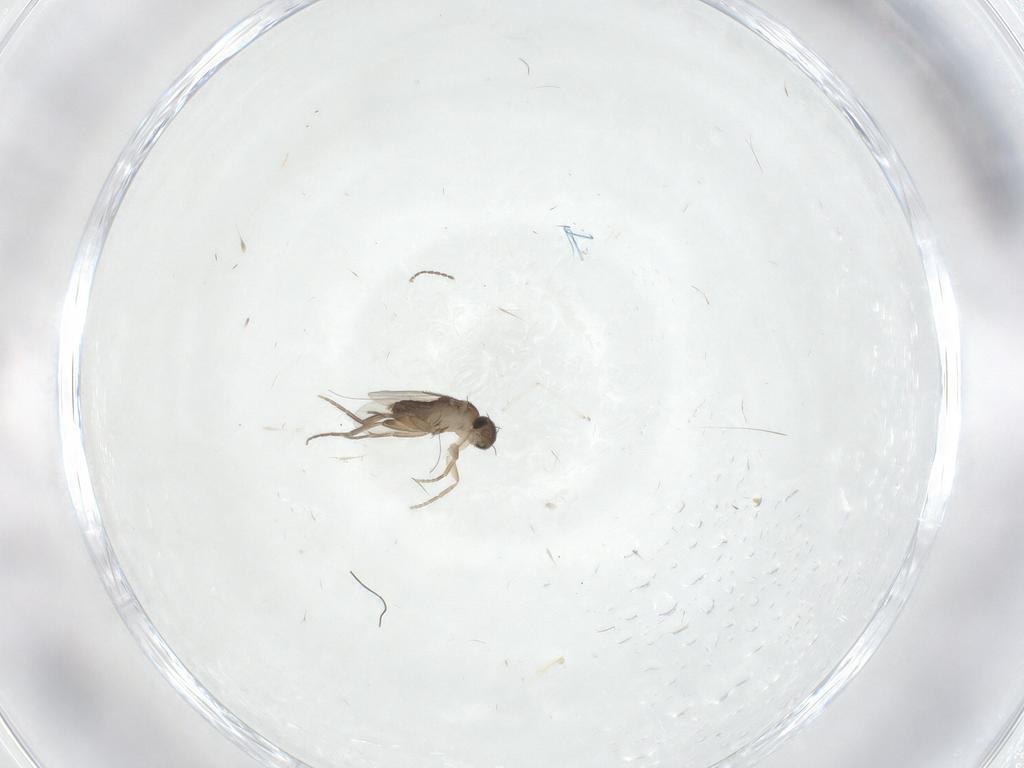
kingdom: Animalia
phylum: Arthropoda
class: Insecta
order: Diptera
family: Phoridae
